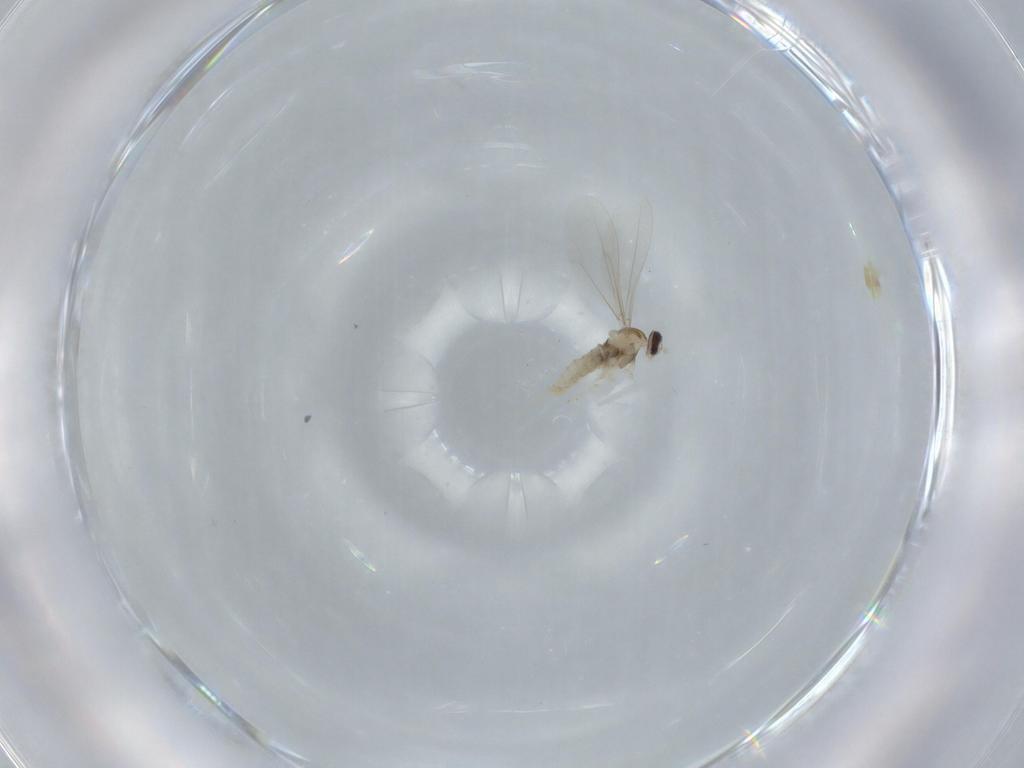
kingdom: Animalia
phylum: Arthropoda
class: Insecta
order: Diptera
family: Cecidomyiidae
